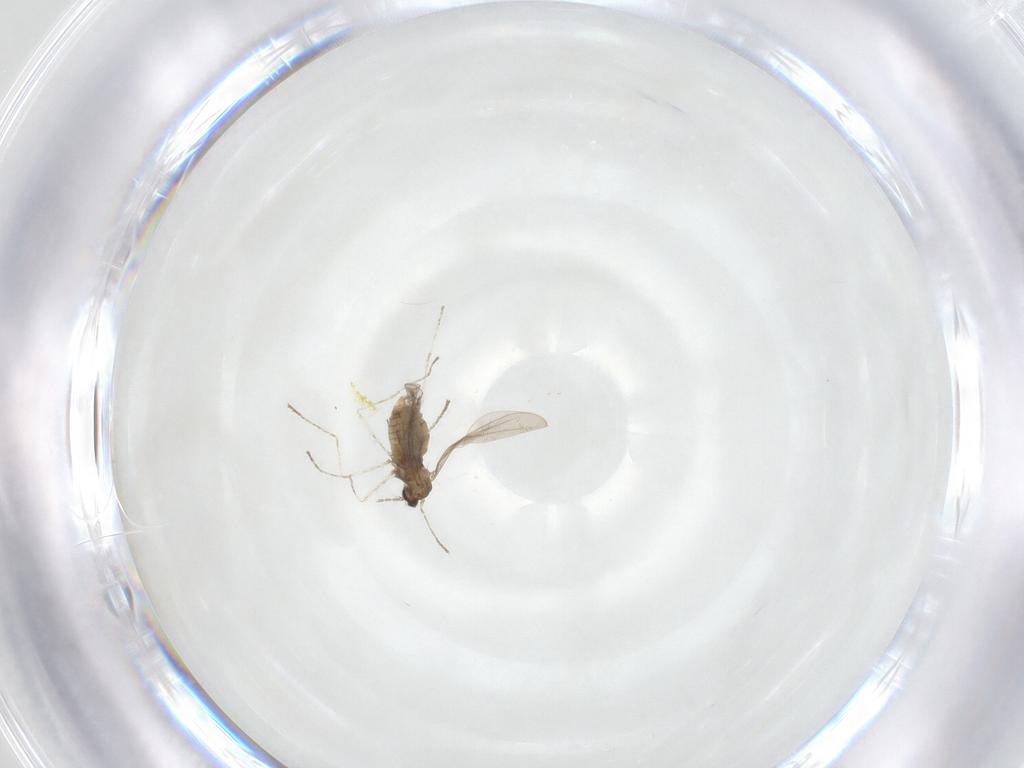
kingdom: Animalia
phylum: Arthropoda
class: Insecta
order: Diptera
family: Cecidomyiidae
